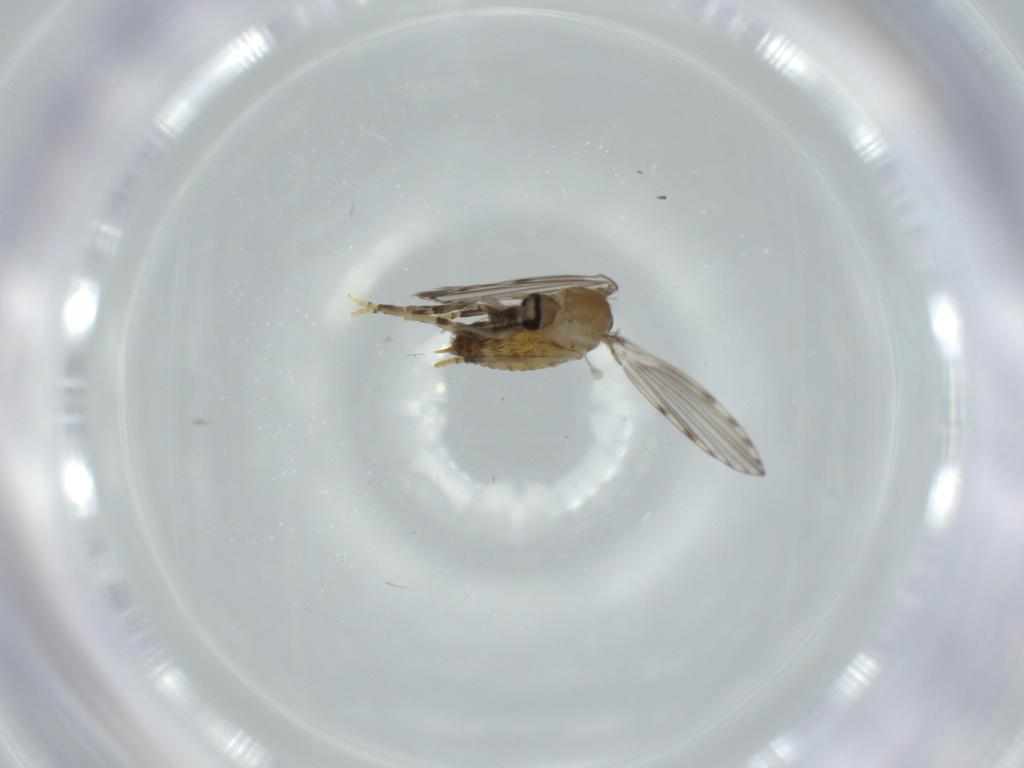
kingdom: Animalia
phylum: Arthropoda
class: Insecta
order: Diptera
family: Psychodidae
